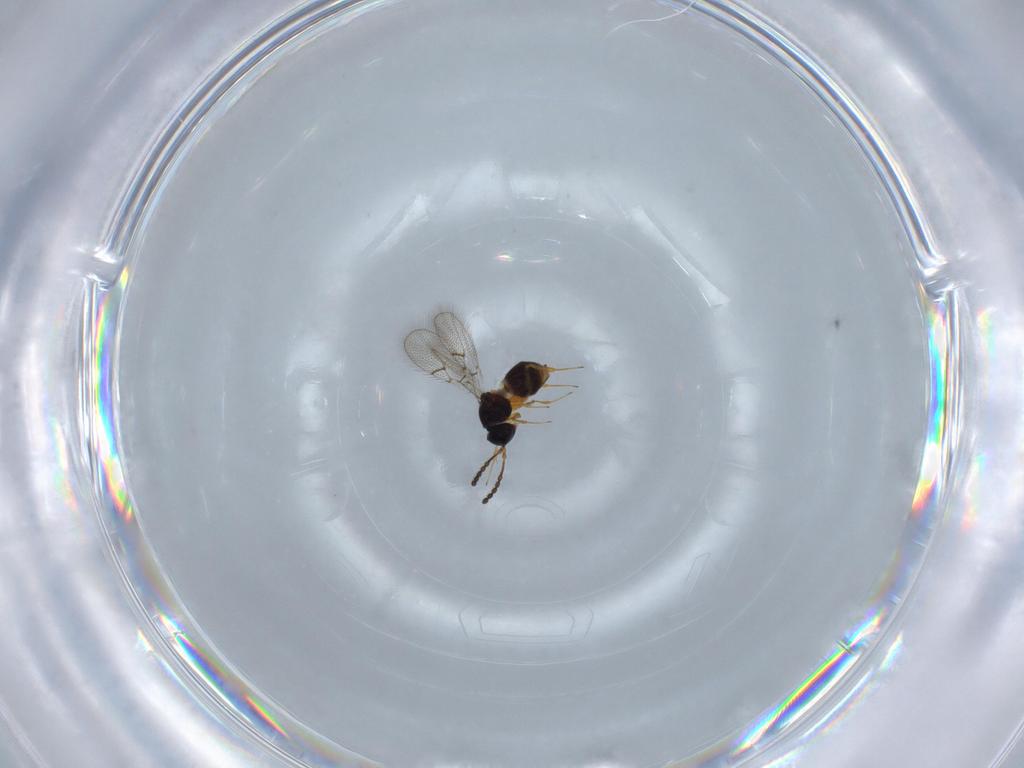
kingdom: Animalia
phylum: Arthropoda
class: Insecta
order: Hymenoptera
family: Figitidae
